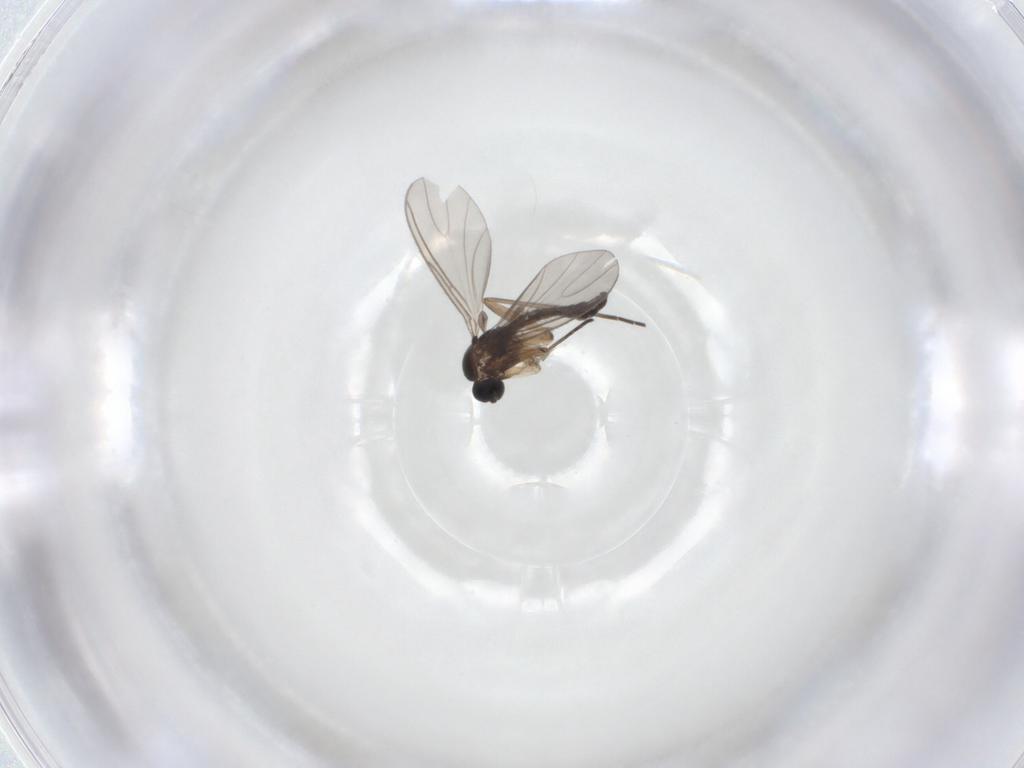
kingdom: Animalia
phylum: Arthropoda
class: Insecta
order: Diptera
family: Sciaridae
